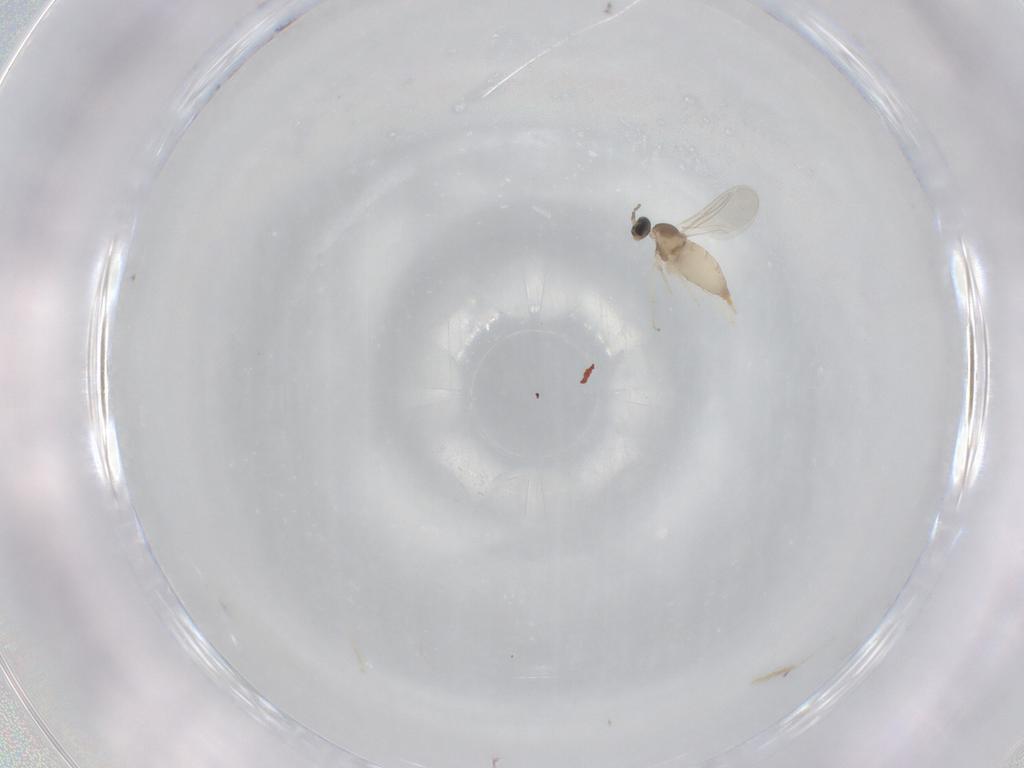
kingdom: Animalia
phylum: Arthropoda
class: Insecta
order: Diptera
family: Cecidomyiidae
